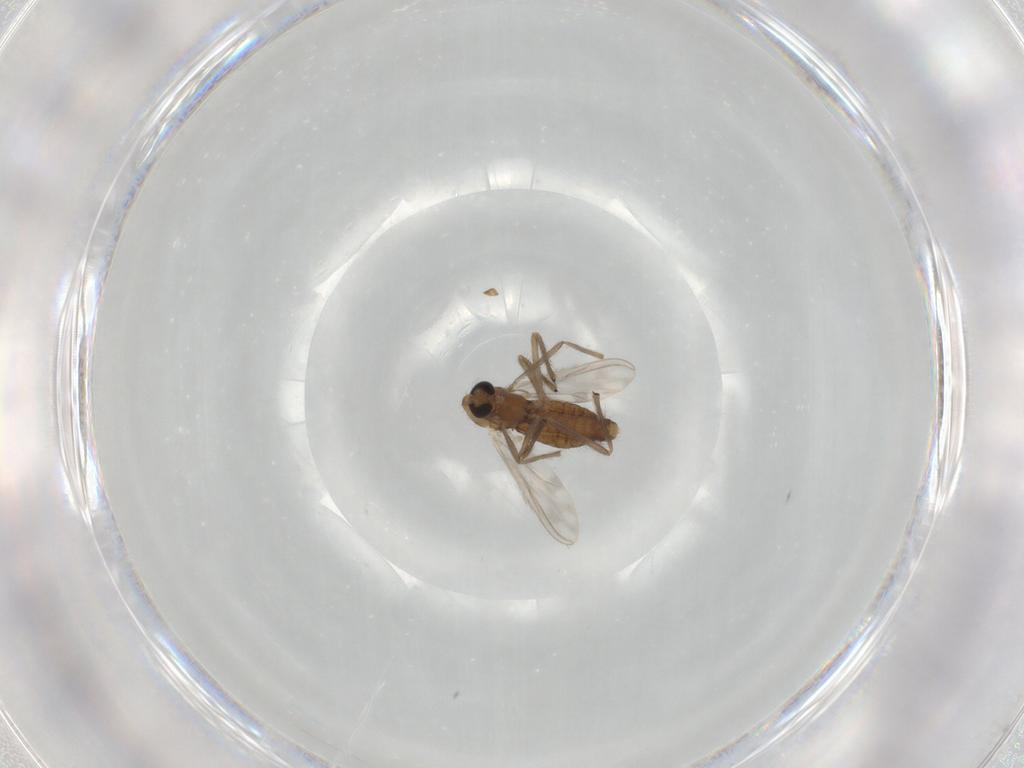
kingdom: Animalia
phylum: Arthropoda
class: Insecta
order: Diptera
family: Chironomidae
